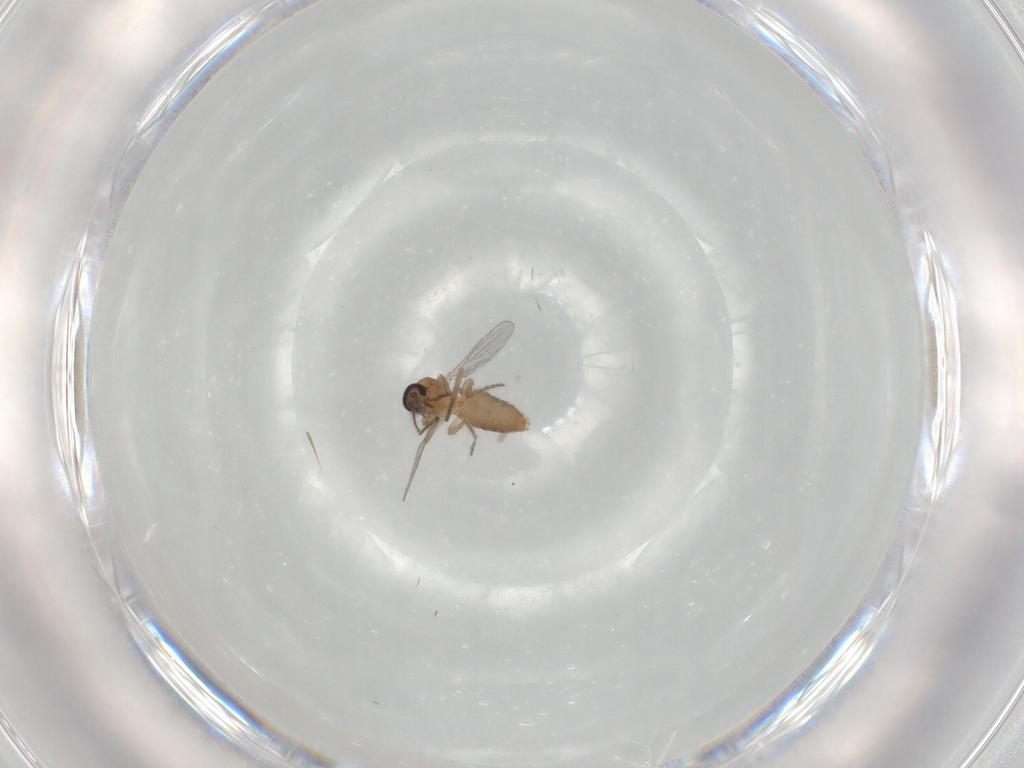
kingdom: Animalia
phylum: Arthropoda
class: Insecta
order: Diptera
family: Ceratopogonidae
